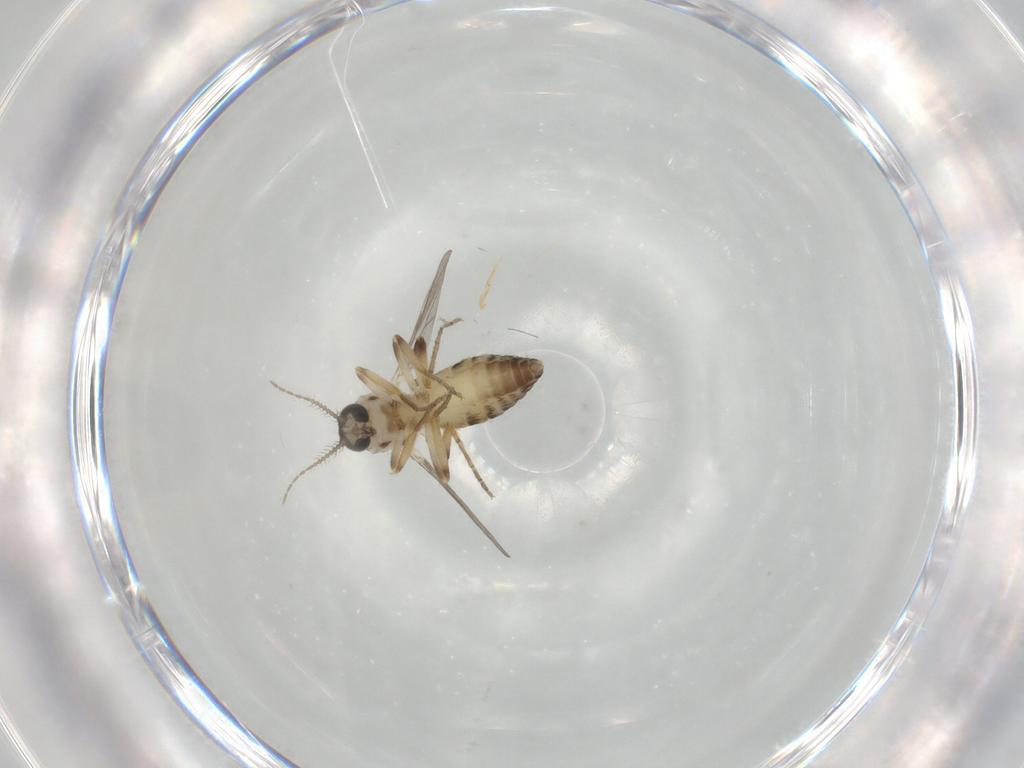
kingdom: Animalia
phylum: Arthropoda
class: Insecta
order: Diptera
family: Ceratopogonidae
